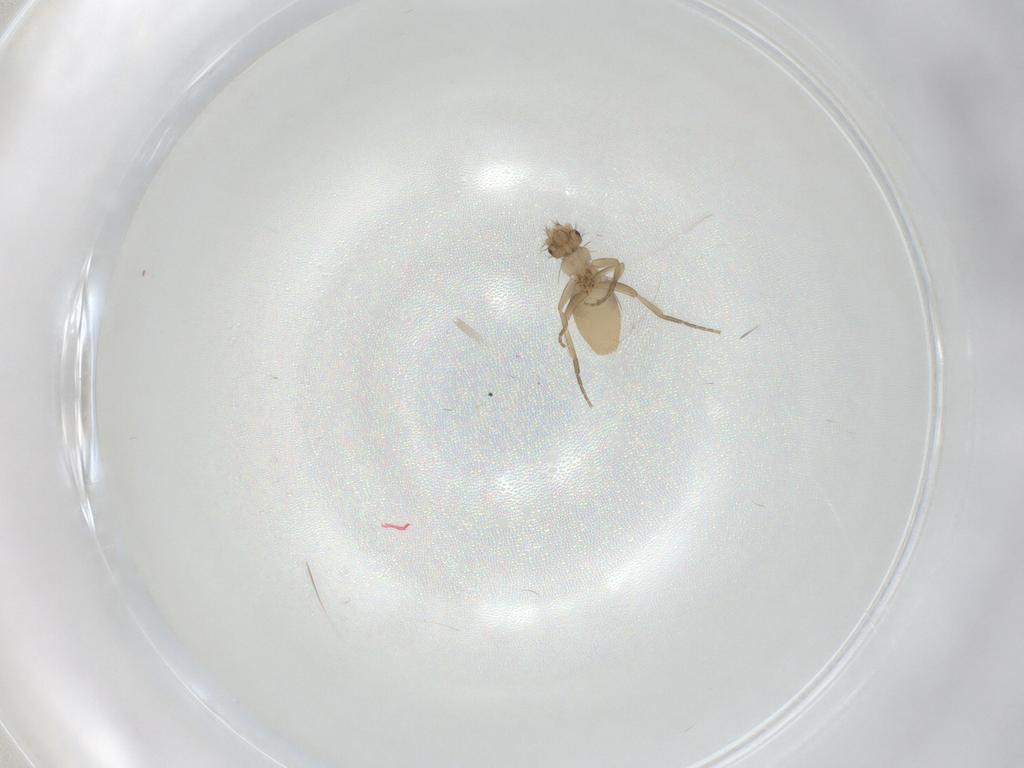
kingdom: Animalia
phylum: Arthropoda
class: Insecta
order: Diptera
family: Phoridae
